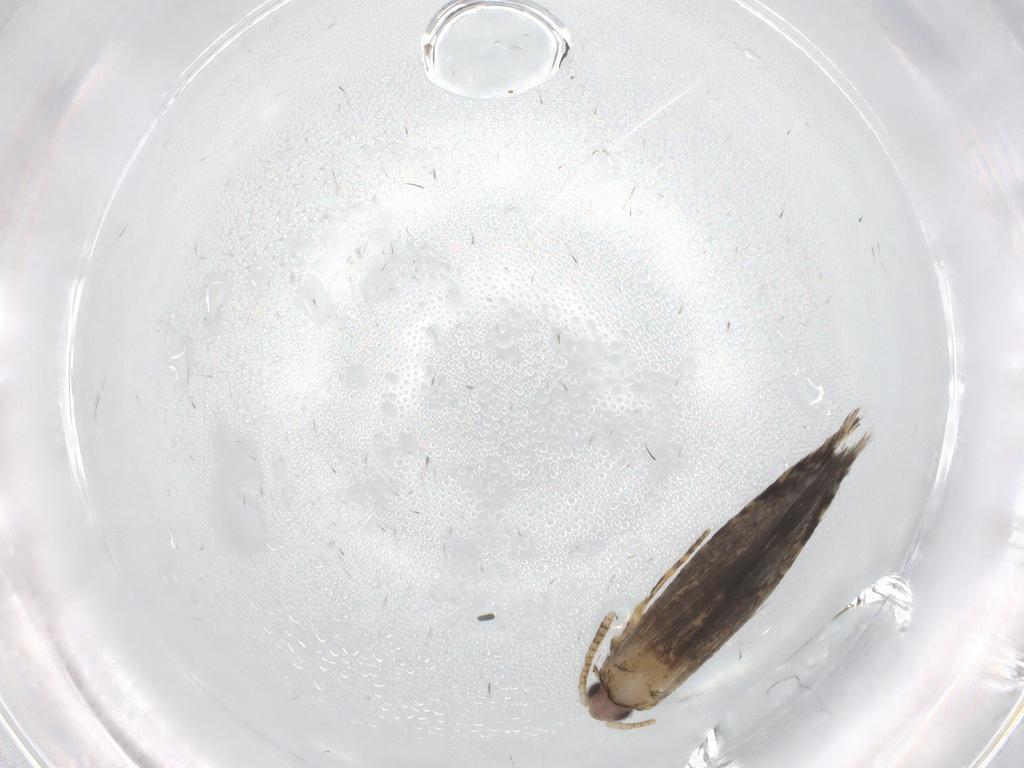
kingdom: Animalia
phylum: Arthropoda
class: Insecta
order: Lepidoptera
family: Tineidae
